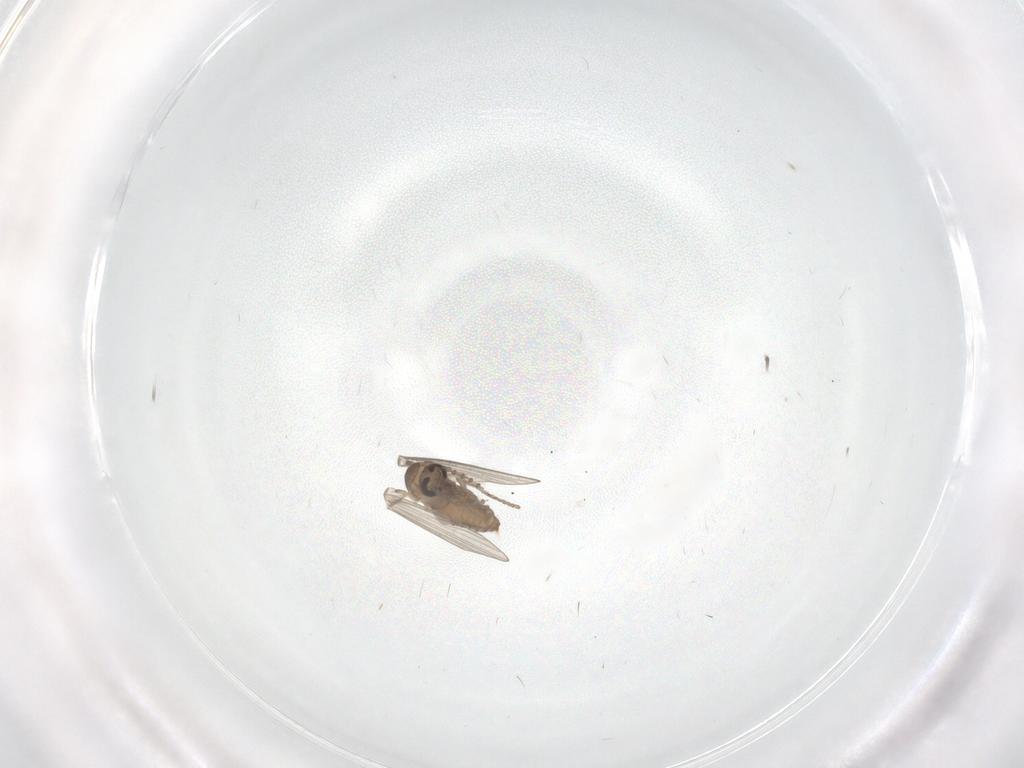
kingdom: Animalia
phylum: Arthropoda
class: Insecta
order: Diptera
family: Psychodidae
